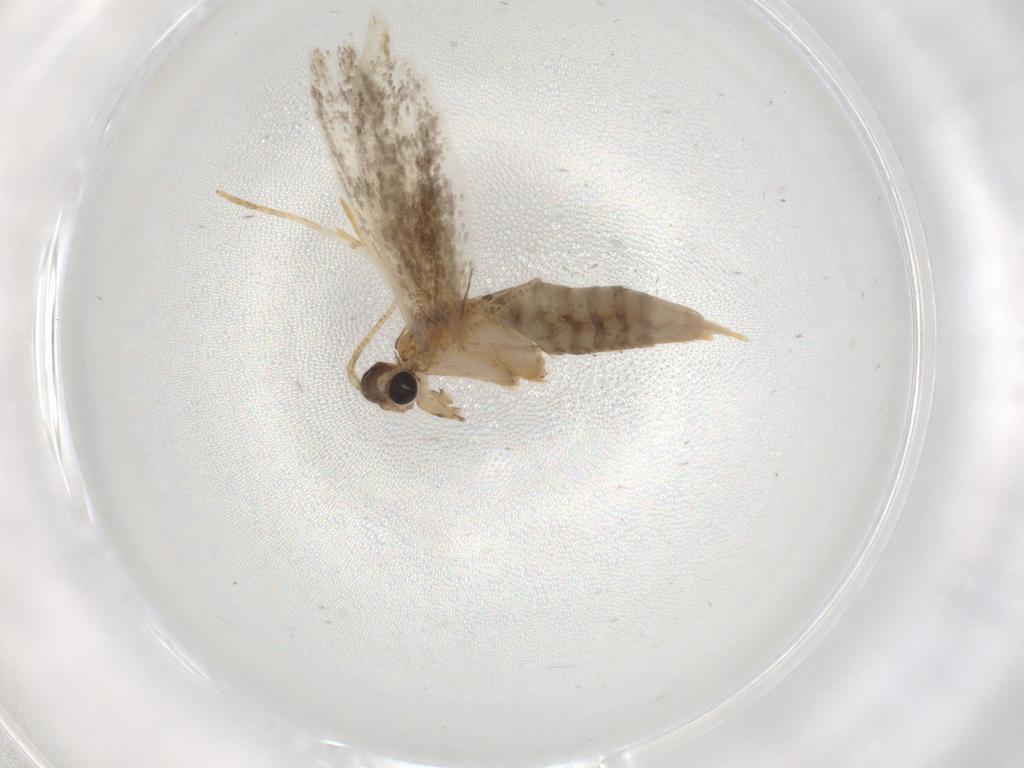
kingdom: Animalia
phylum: Arthropoda
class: Insecta
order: Lepidoptera
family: Tineidae
